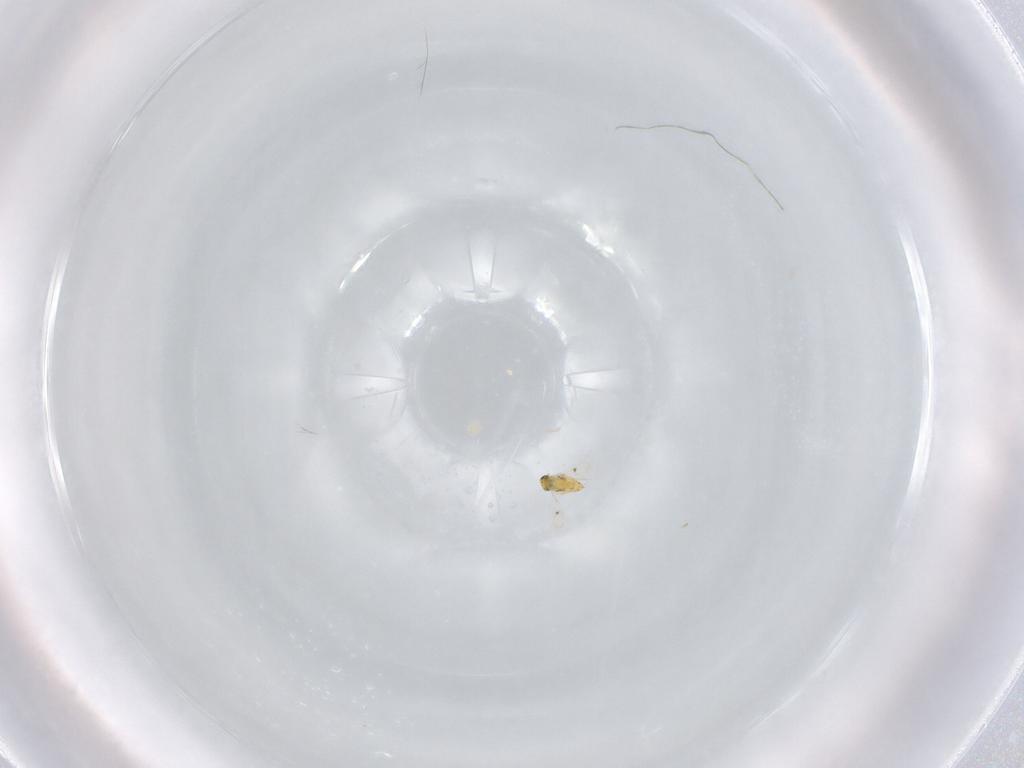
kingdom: Animalia
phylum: Arthropoda
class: Insecta
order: Hymenoptera
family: Trichogrammatidae
